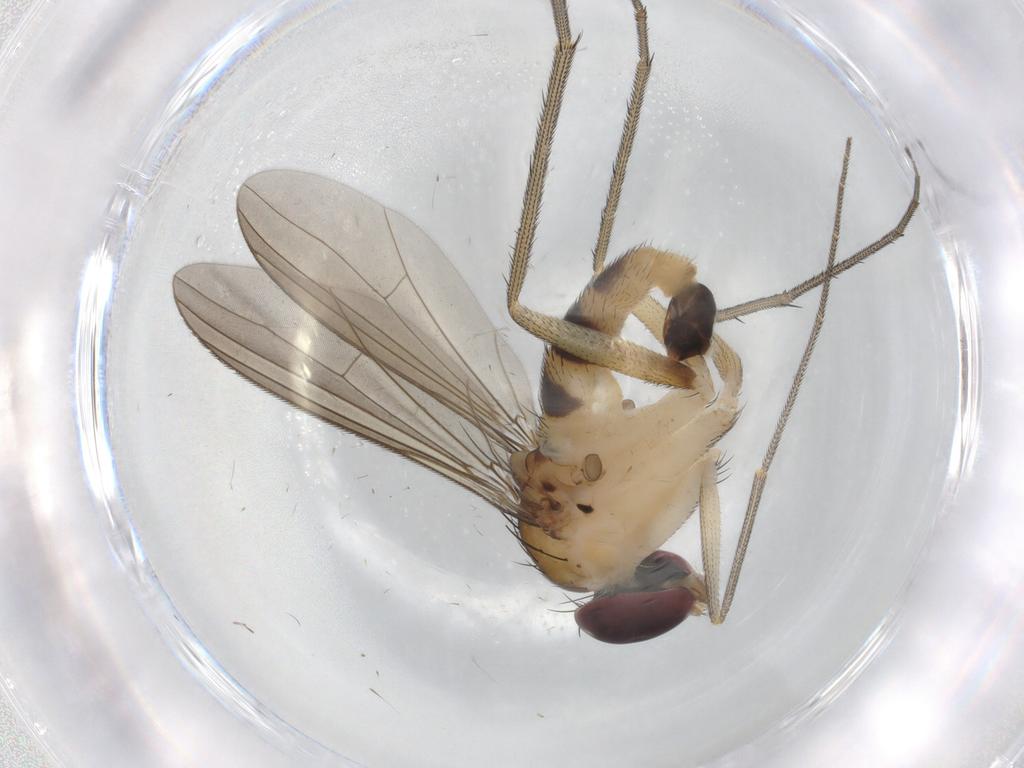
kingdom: Animalia
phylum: Arthropoda
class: Insecta
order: Diptera
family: Dolichopodidae
